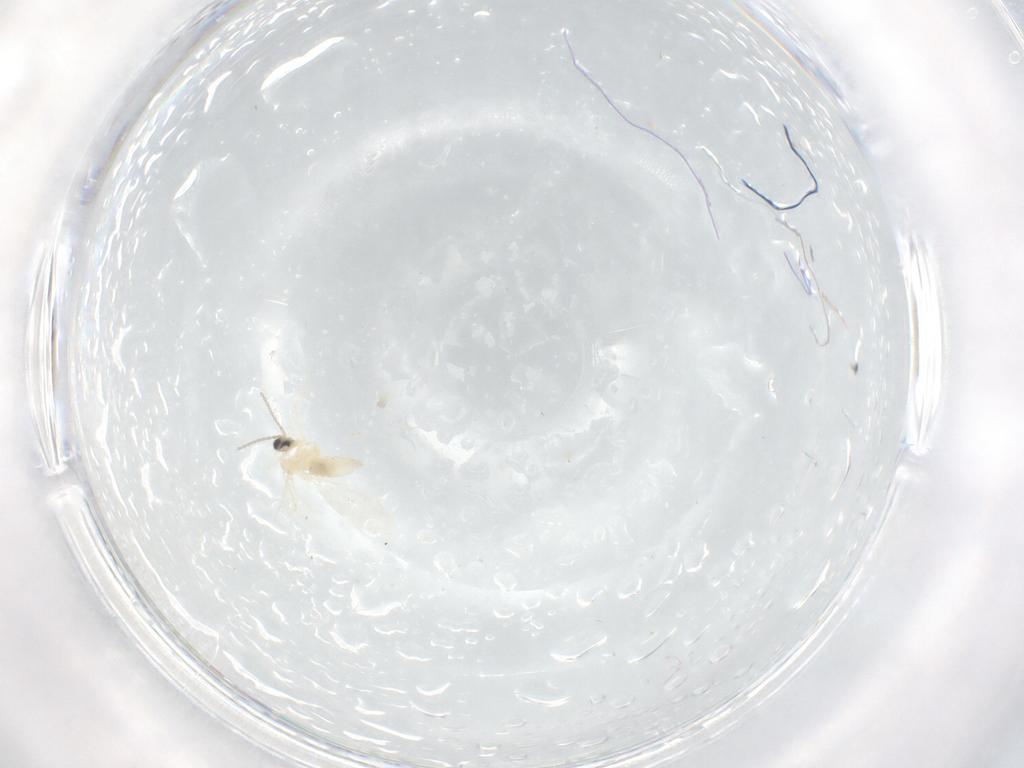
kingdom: Animalia
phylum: Arthropoda
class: Insecta
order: Diptera
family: Cecidomyiidae
